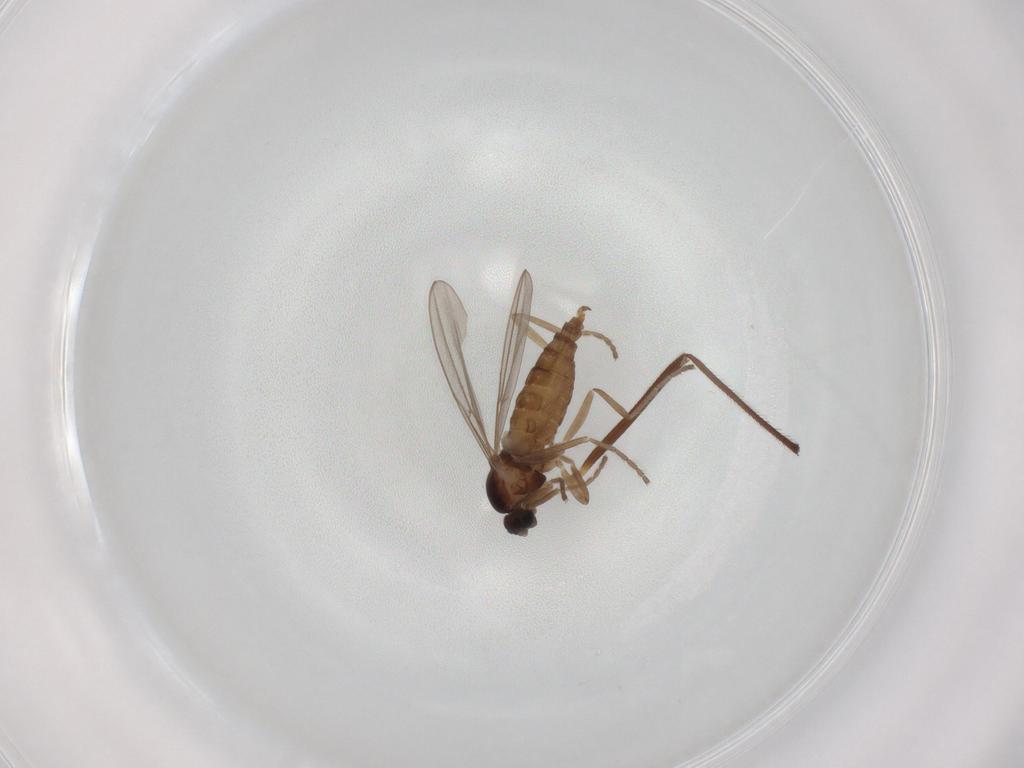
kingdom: Animalia
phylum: Arthropoda
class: Insecta
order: Diptera
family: Cecidomyiidae
